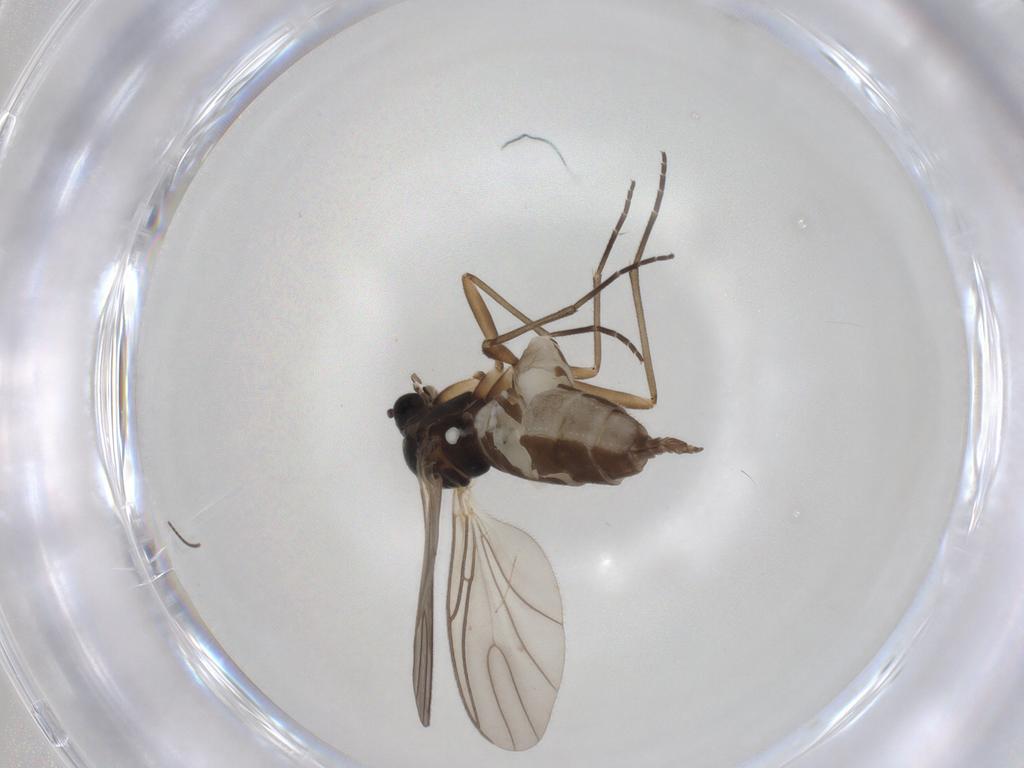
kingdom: Animalia
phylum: Arthropoda
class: Insecta
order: Diptera
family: Sciaridae
